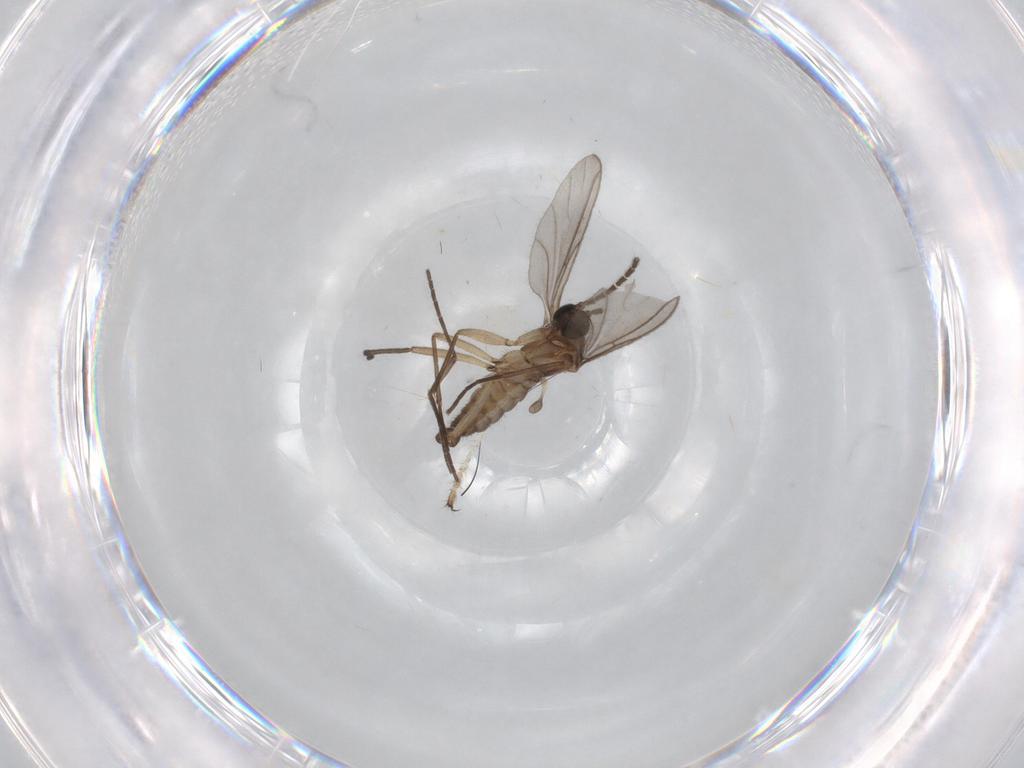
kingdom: Animalia
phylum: Arthropoda
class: Insecta
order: Diptera
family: Sciaridae
